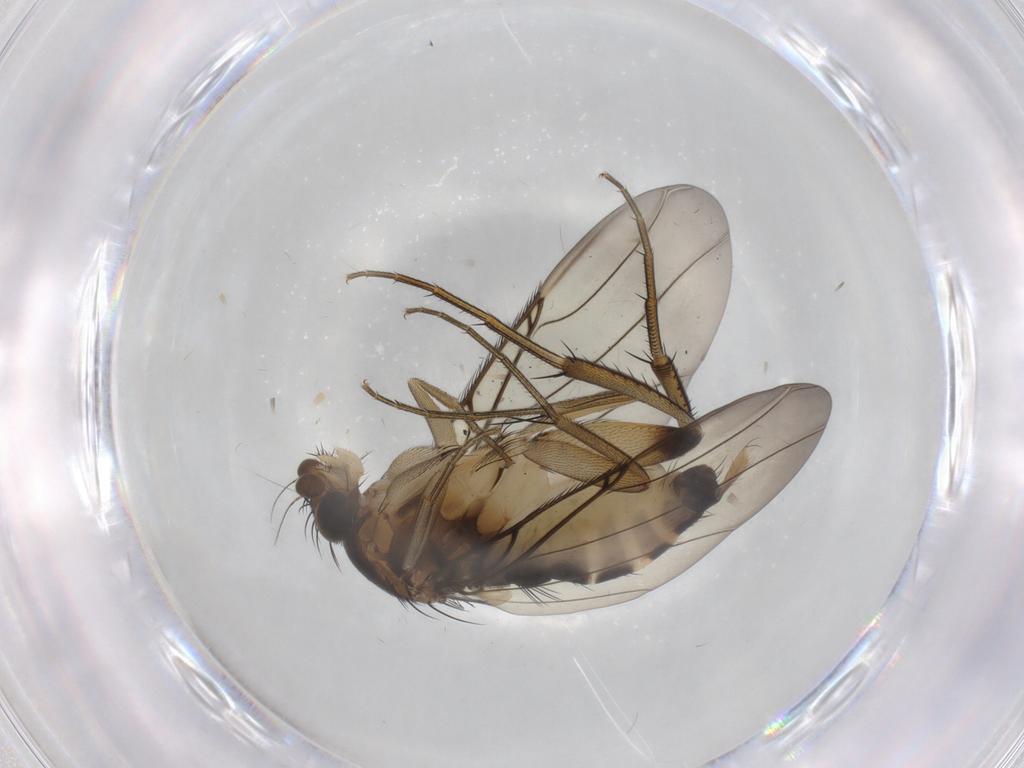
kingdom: Animalia
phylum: Arthropoda
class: Insecta
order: Diptera
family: Phoridae
